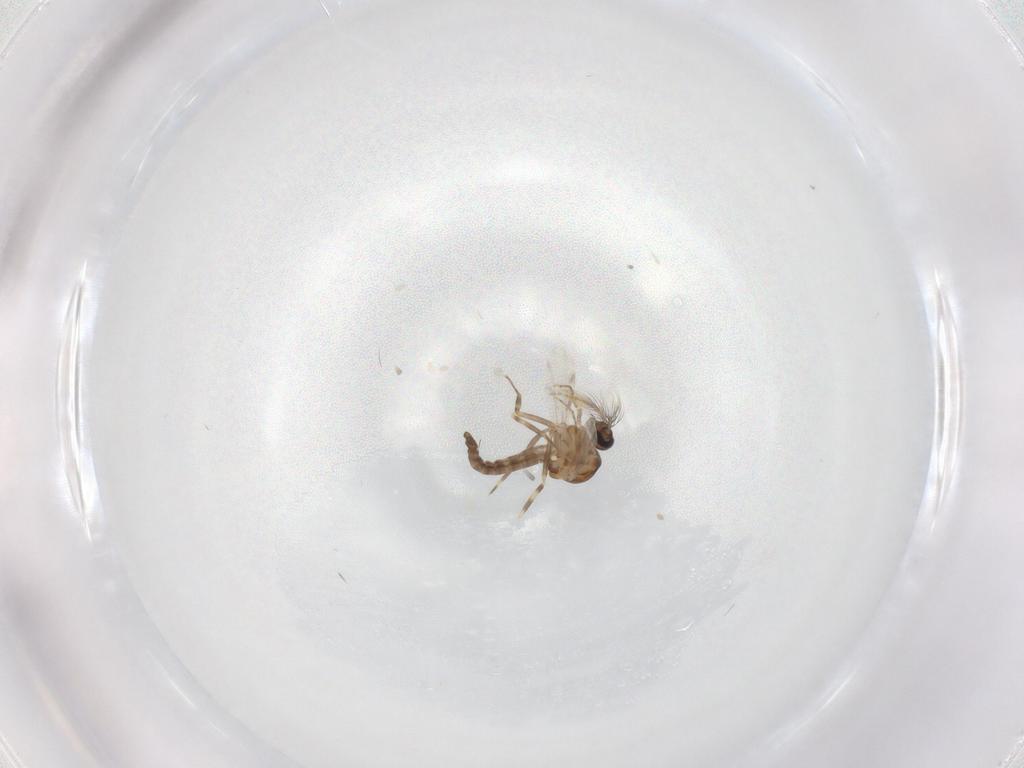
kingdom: Animalia
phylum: Arthropoda
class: Insecta
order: Diptera
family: Ceratopogonidae
